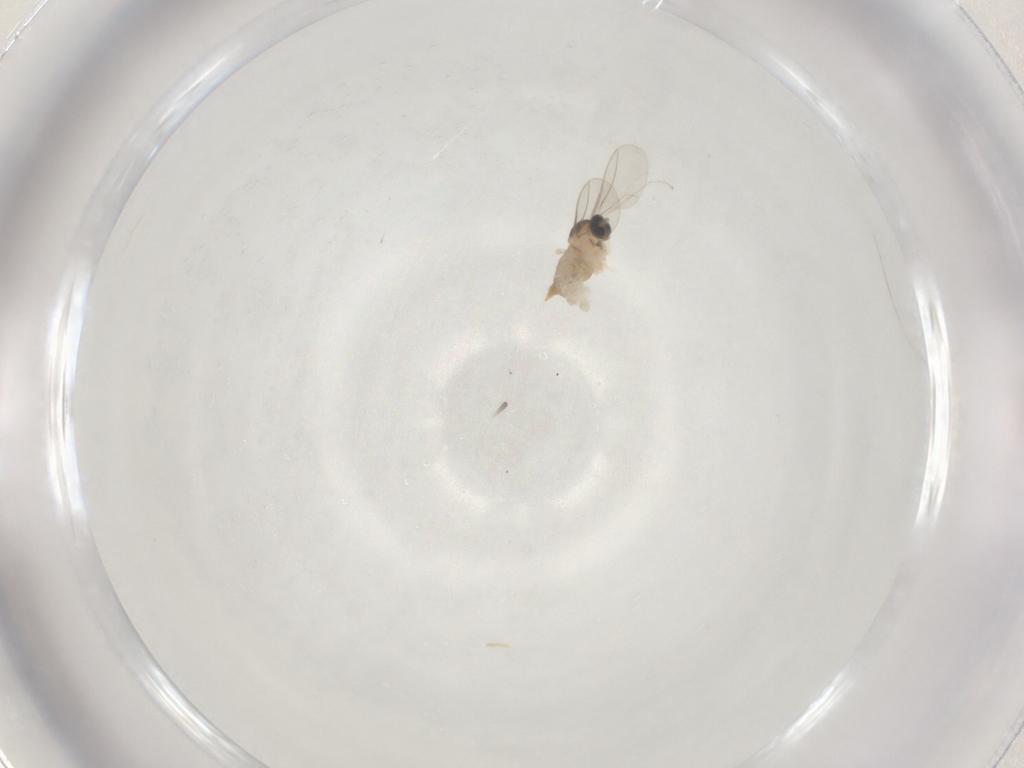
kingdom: Animalia
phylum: Arthropoda
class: Insecta
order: Diptera
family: Cecidomyiidae
